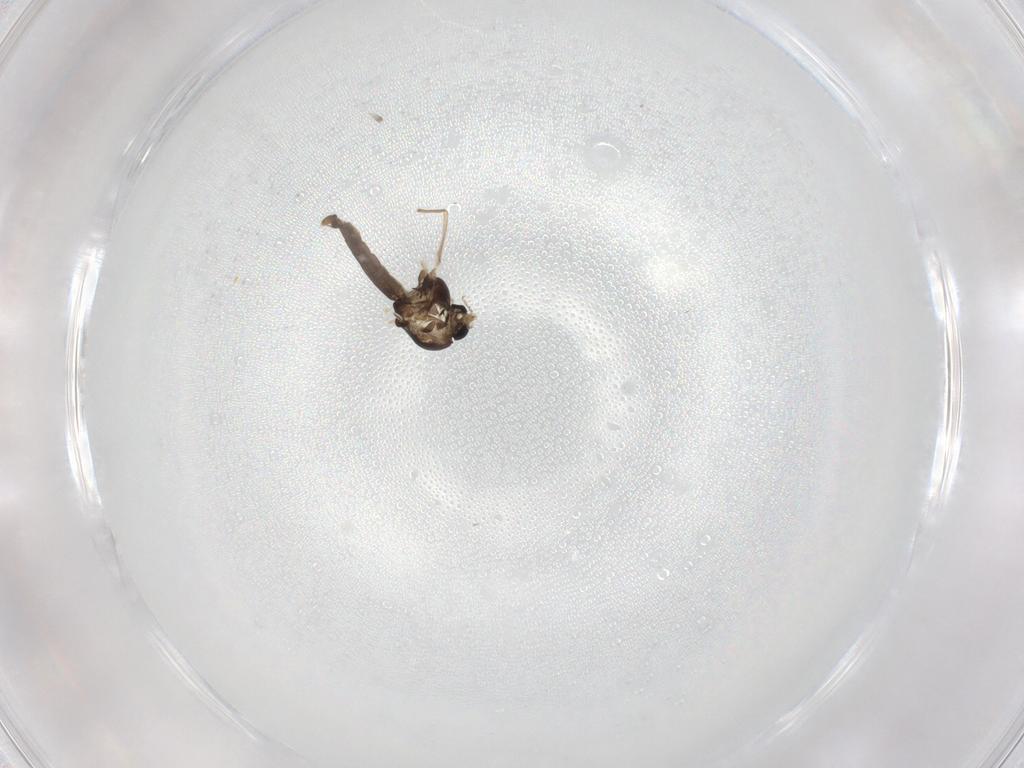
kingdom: Animalia
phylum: Arthropoda
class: Insecta
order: Diptera
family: Chironomidae
